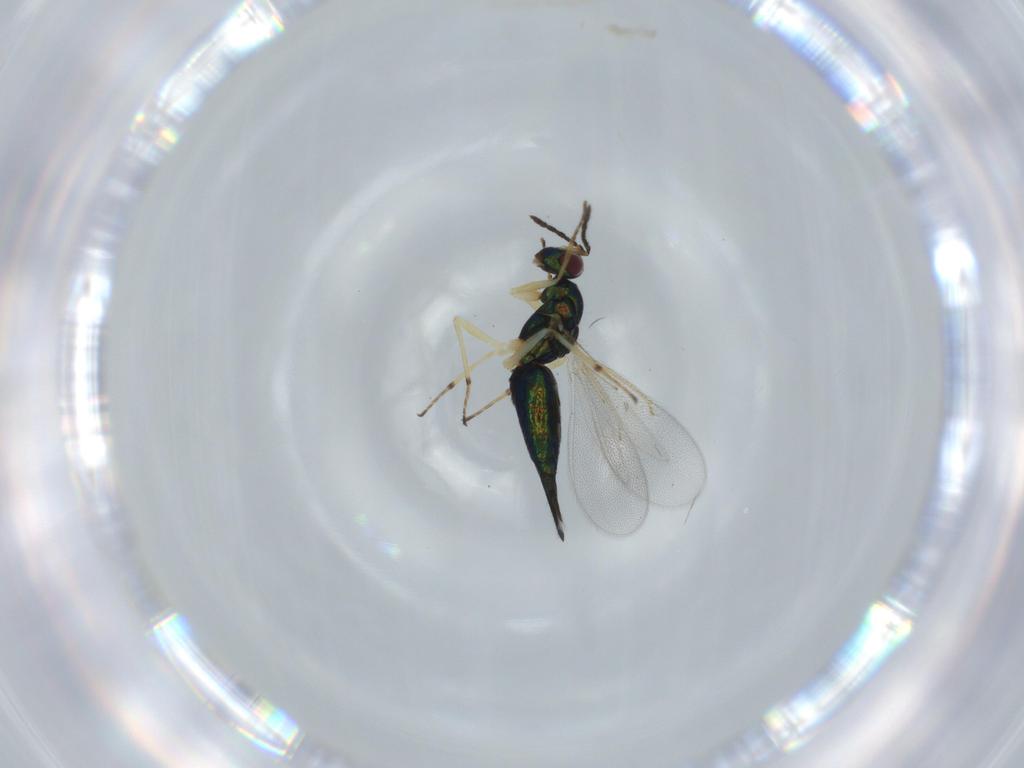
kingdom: Animalia
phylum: Arthropoda
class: Insecta
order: Hymenoptera
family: Eulophidae
